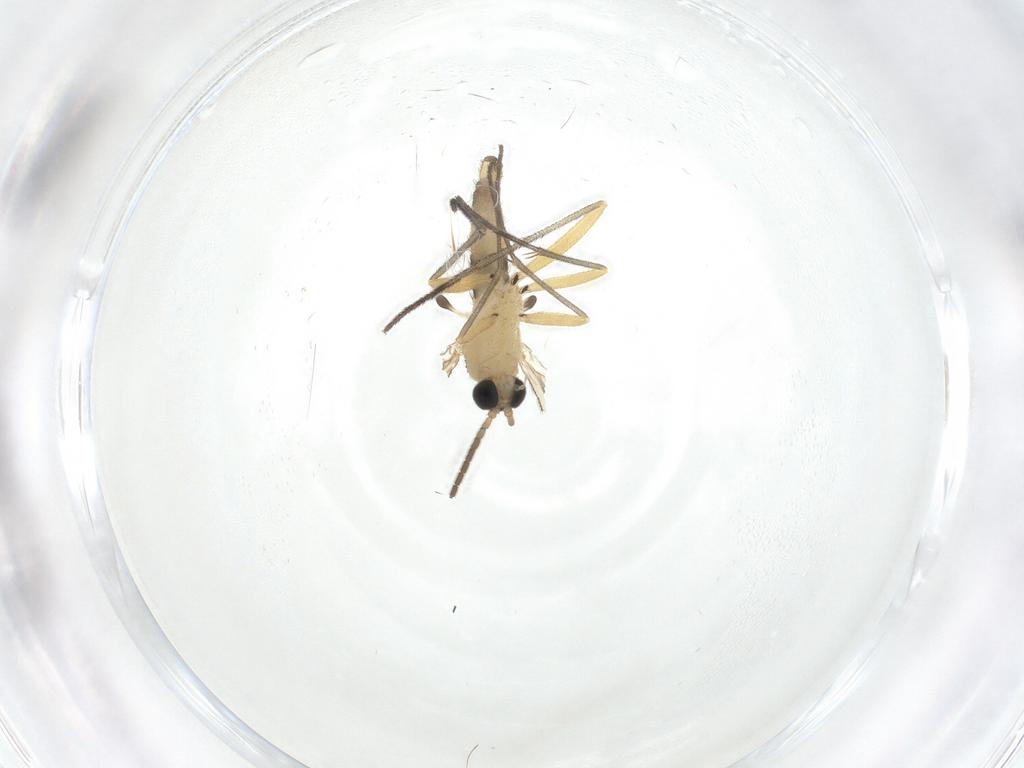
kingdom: Animalia
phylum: Arthropoda
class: Insecta
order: Diptera
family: Sciaridae
